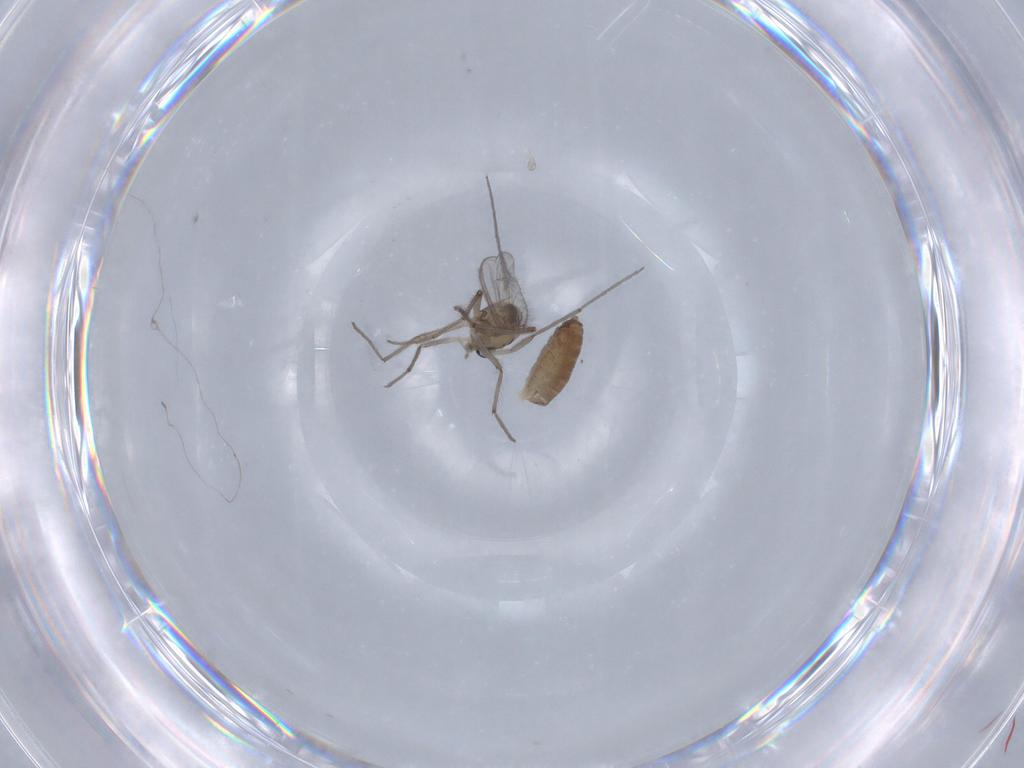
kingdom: Animalia
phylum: Arthropoda
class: Insecta
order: Diptera
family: Chironomidae
